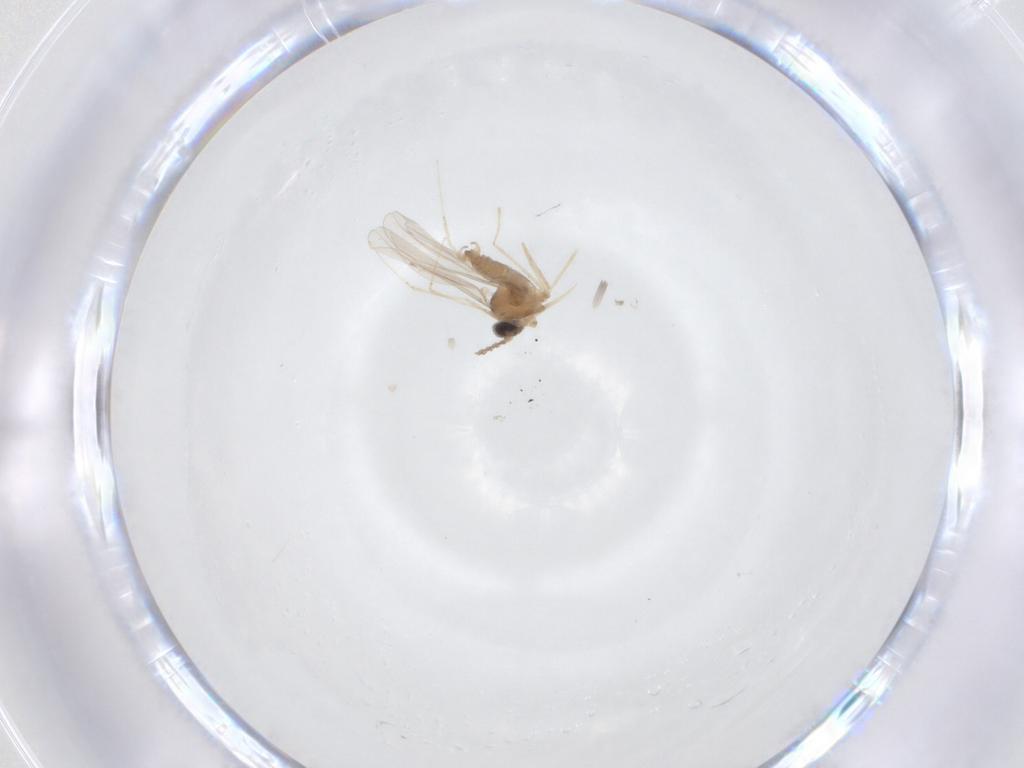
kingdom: Animalia
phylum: Arthropoda
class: Insecta
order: Diptera
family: Cecidomyiidae
